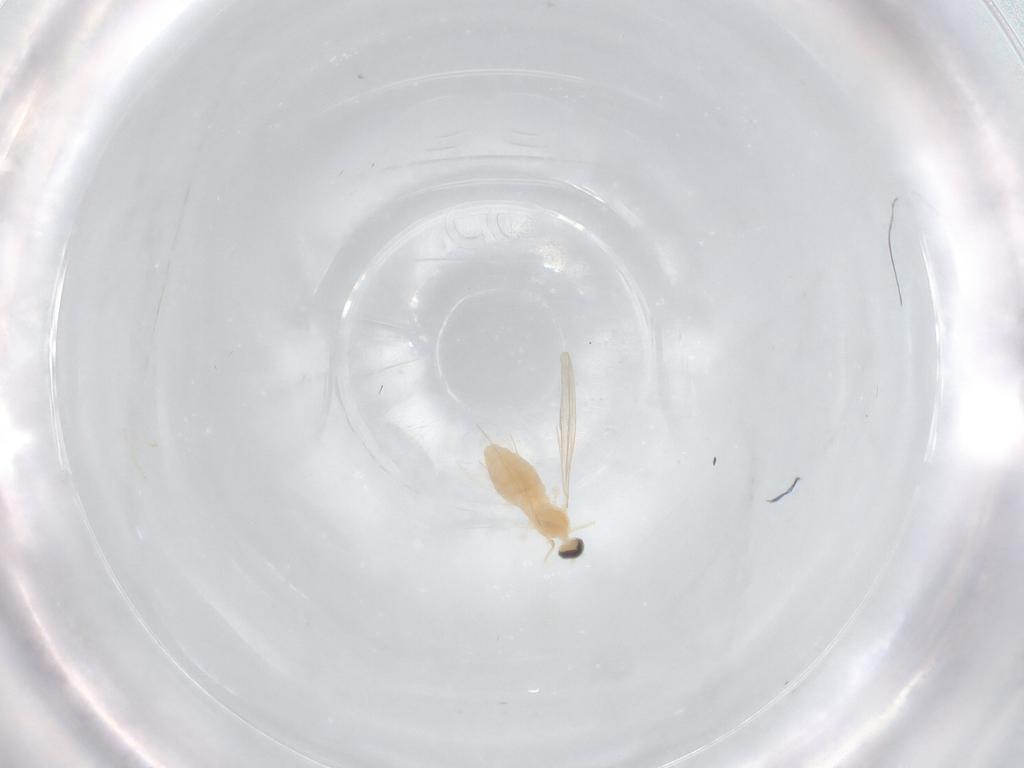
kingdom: Animalia
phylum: Arthropoda
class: Insecta
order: Diptera
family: Cecidomyiidae
